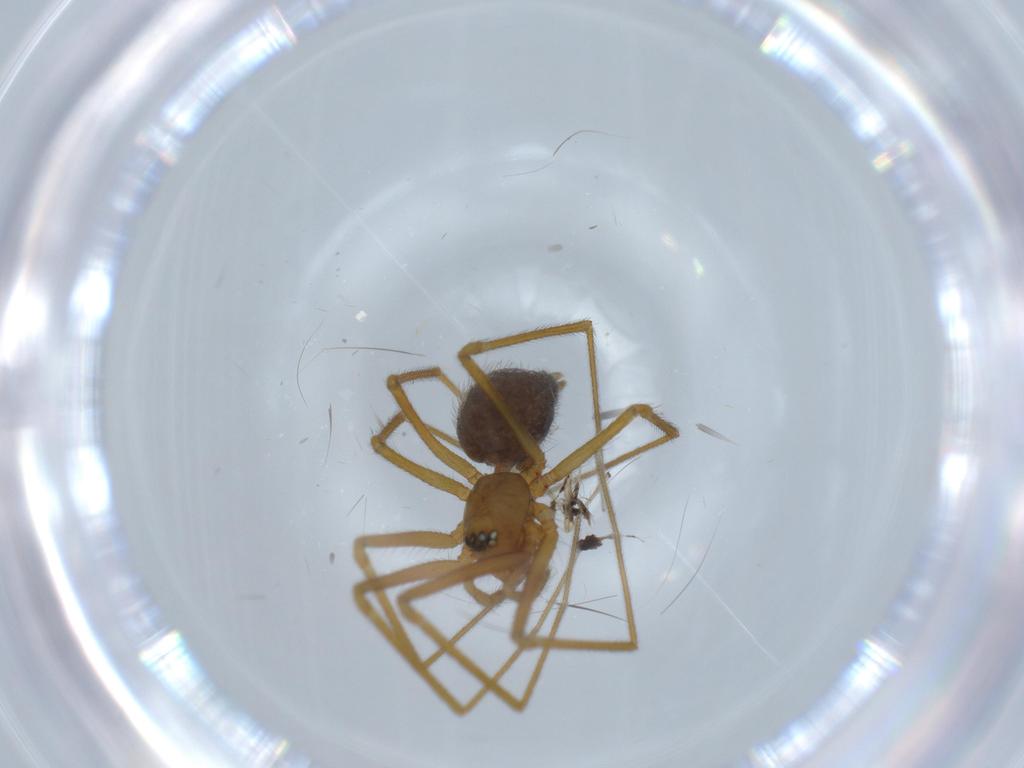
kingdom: Animalia
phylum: Arthropoda
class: Arachnida
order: Araneae
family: Linyphiidae
